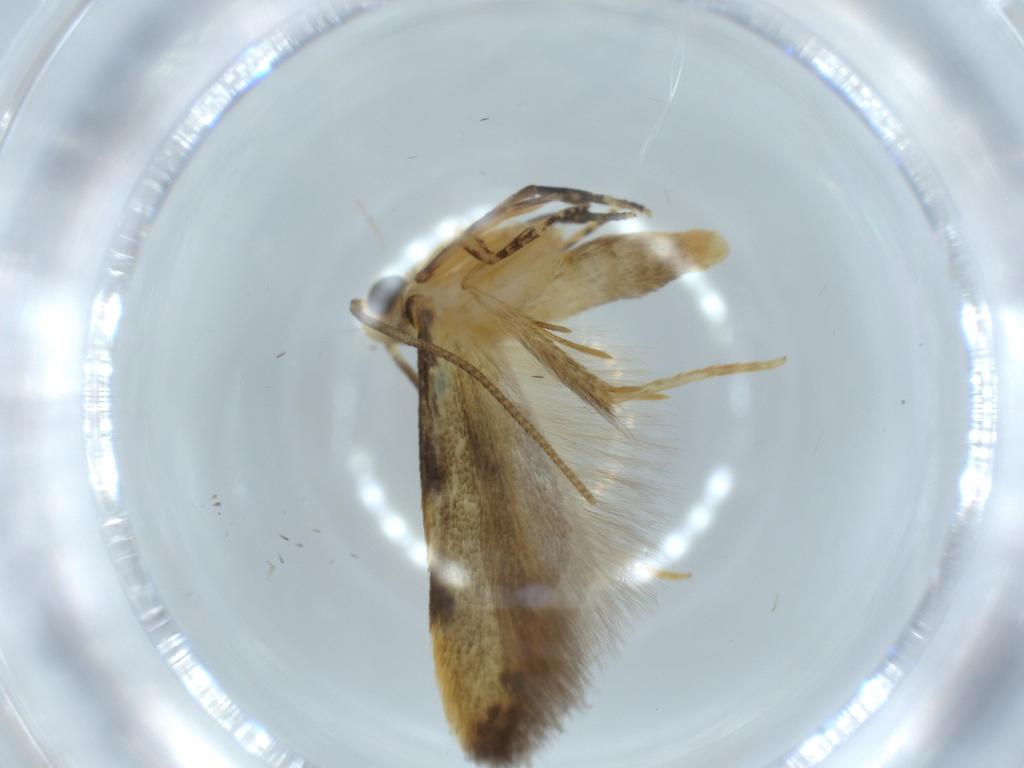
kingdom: Animalia
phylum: Arthropoda
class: Insecta
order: Lepidoptera
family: Autostichidae
